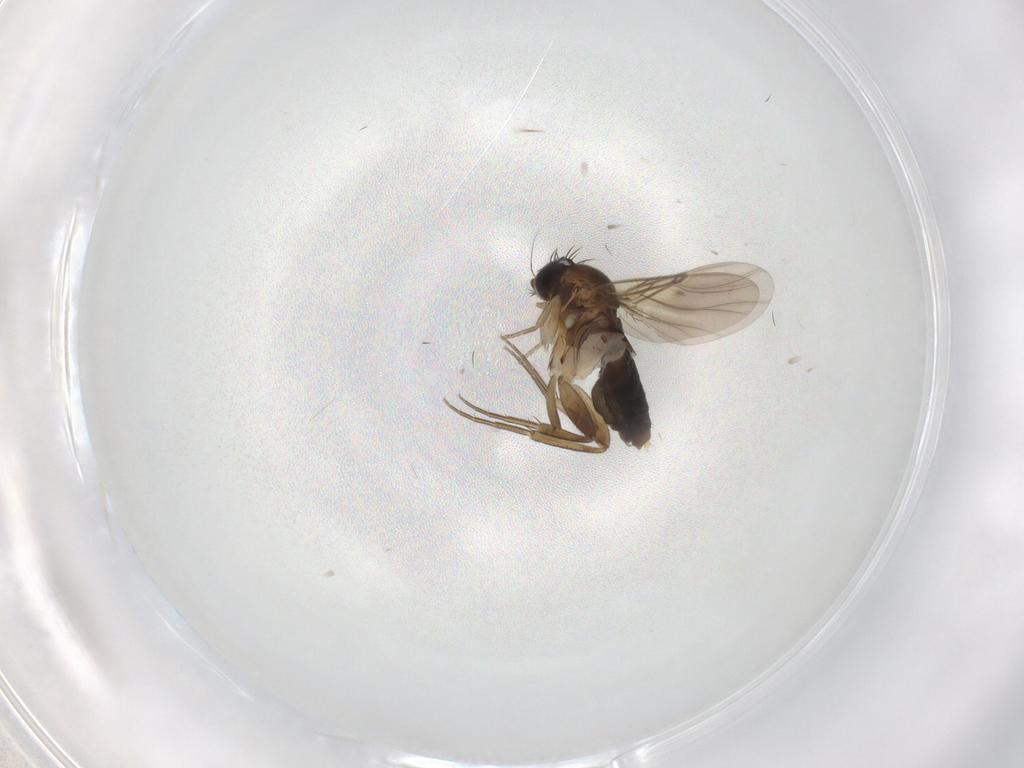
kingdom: Animalia
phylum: Arthropoda
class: Insecta
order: Diptera
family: Phoridae
